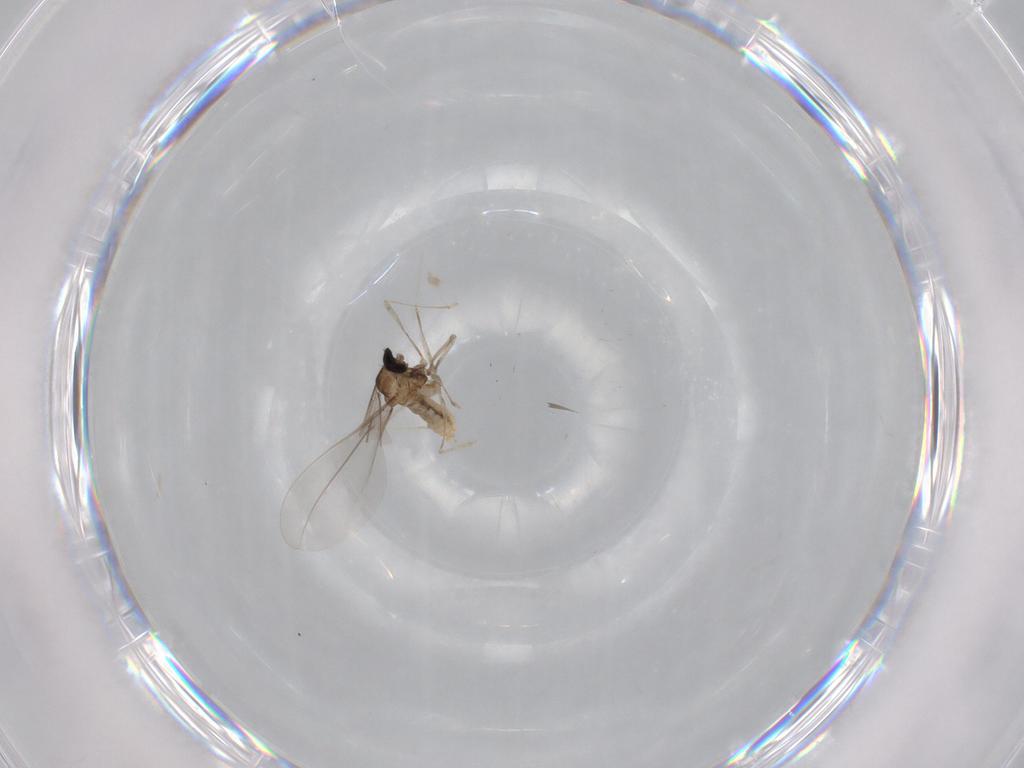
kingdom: Animalia
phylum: Arthropoda
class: Insecta
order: Diptera
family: Cecidomyiidae
